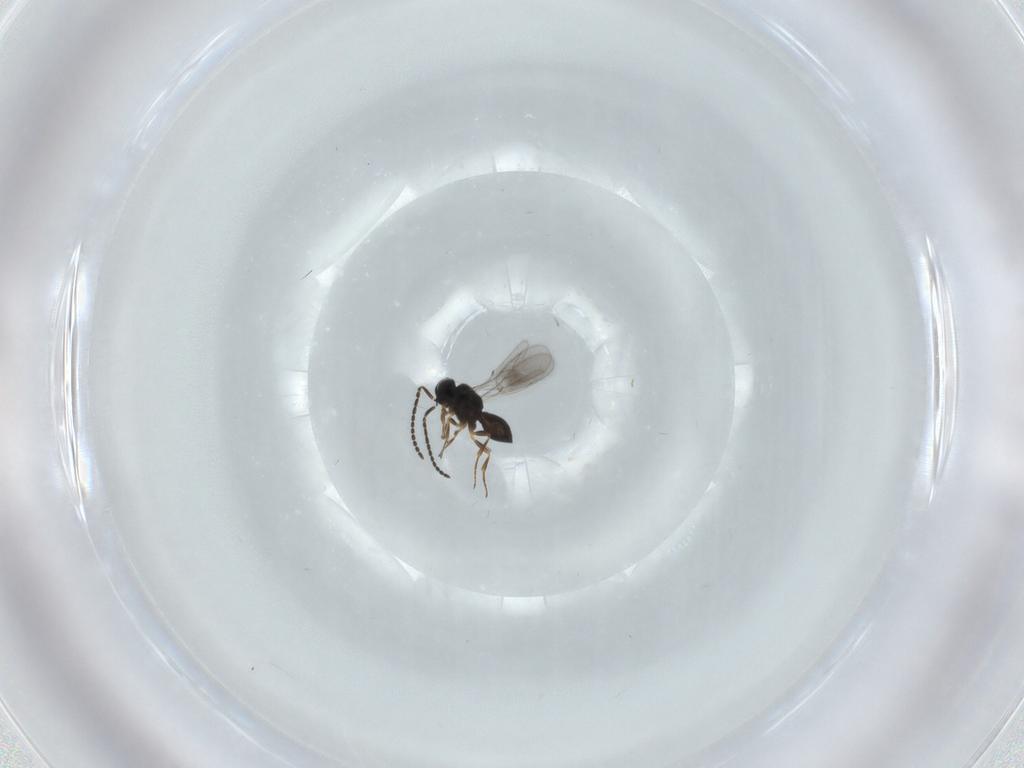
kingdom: Animalia
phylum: Arthropoda
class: Insecta
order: Hymenoptera
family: Scelionidae
